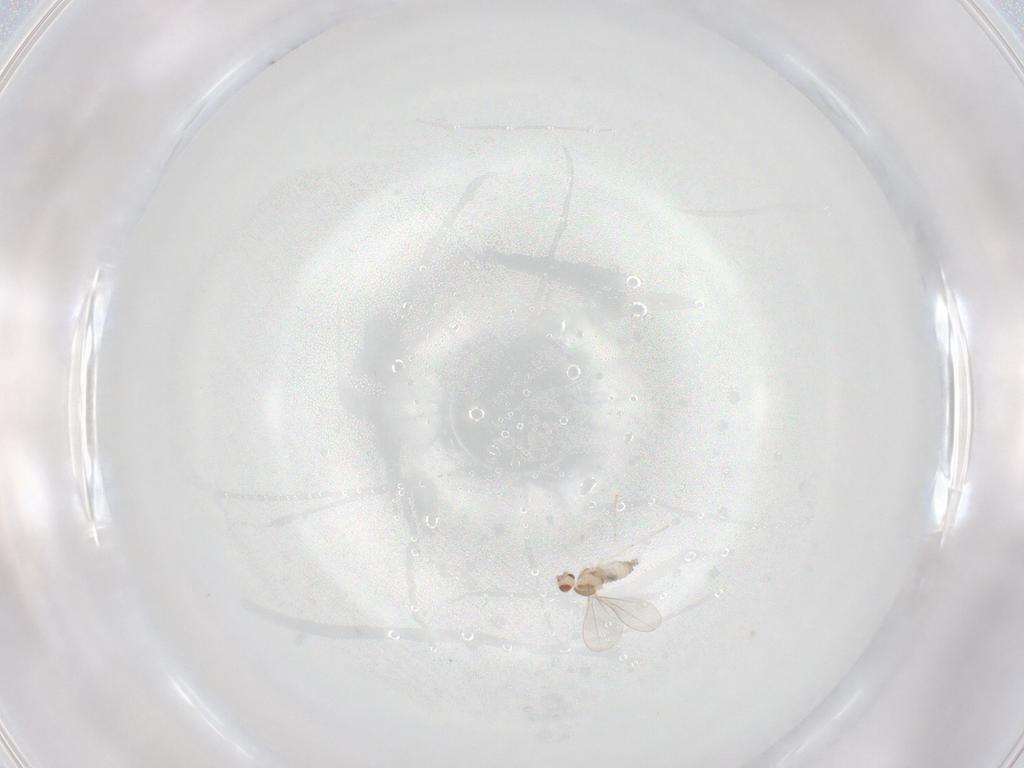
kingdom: Animalia
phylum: Arthropoda
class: Insecta
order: Diptera
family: Cecidomyiidae
